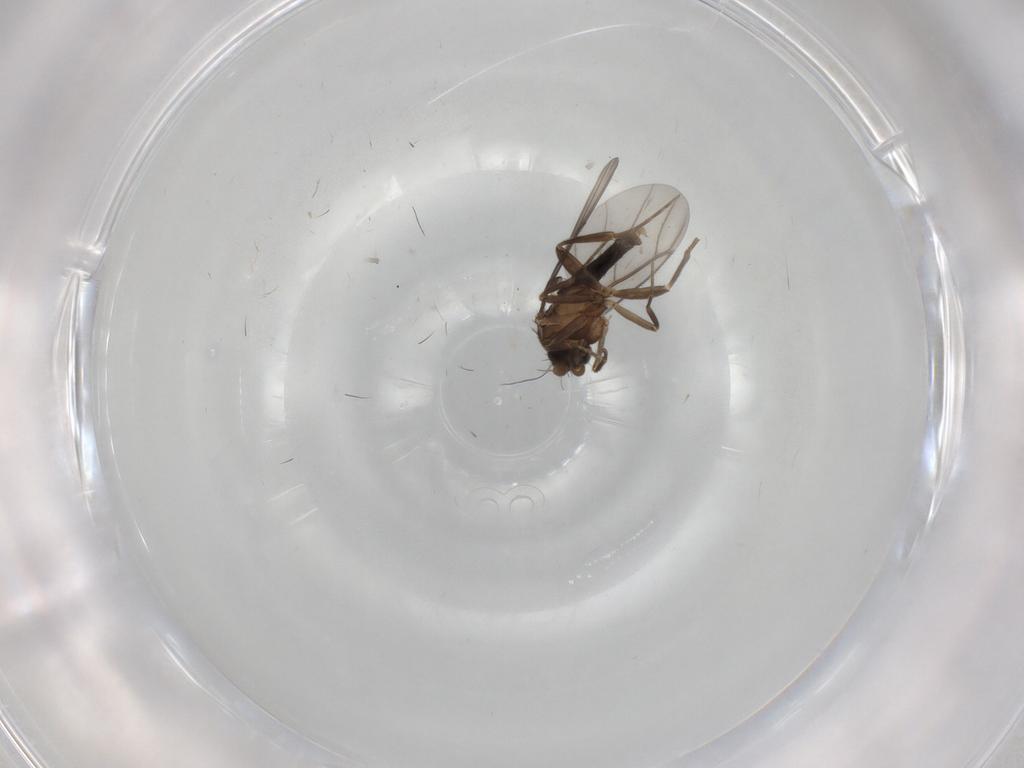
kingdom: Animalia
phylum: Arthropoda
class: Insecta
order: Diptera
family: Phoridae
